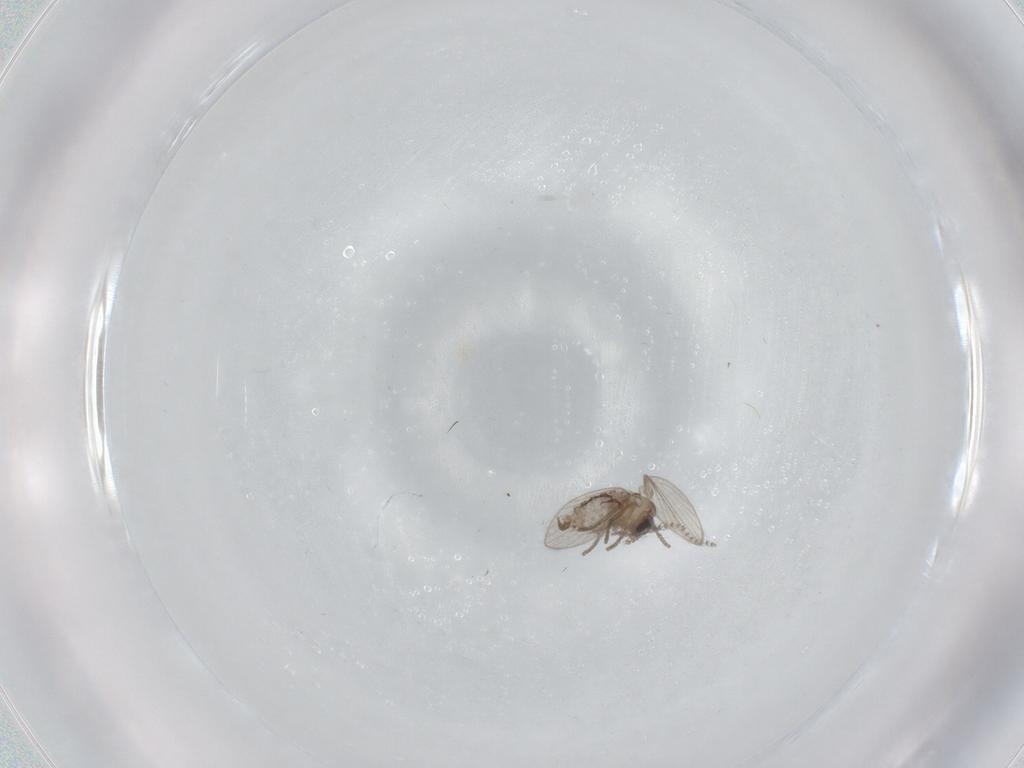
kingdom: Animalia
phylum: Arthropoda
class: Insecta
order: Diptera
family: Psychodidae
